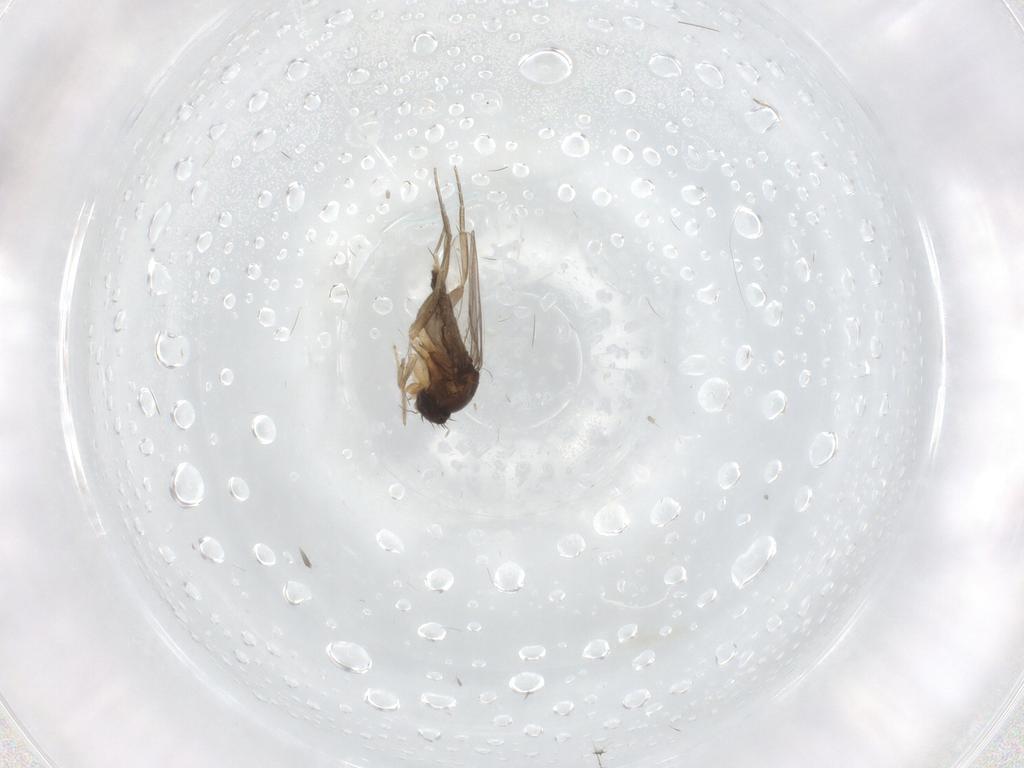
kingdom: Animalia
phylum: Arthropoda
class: Insecta
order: Diptera
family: Phoridae
